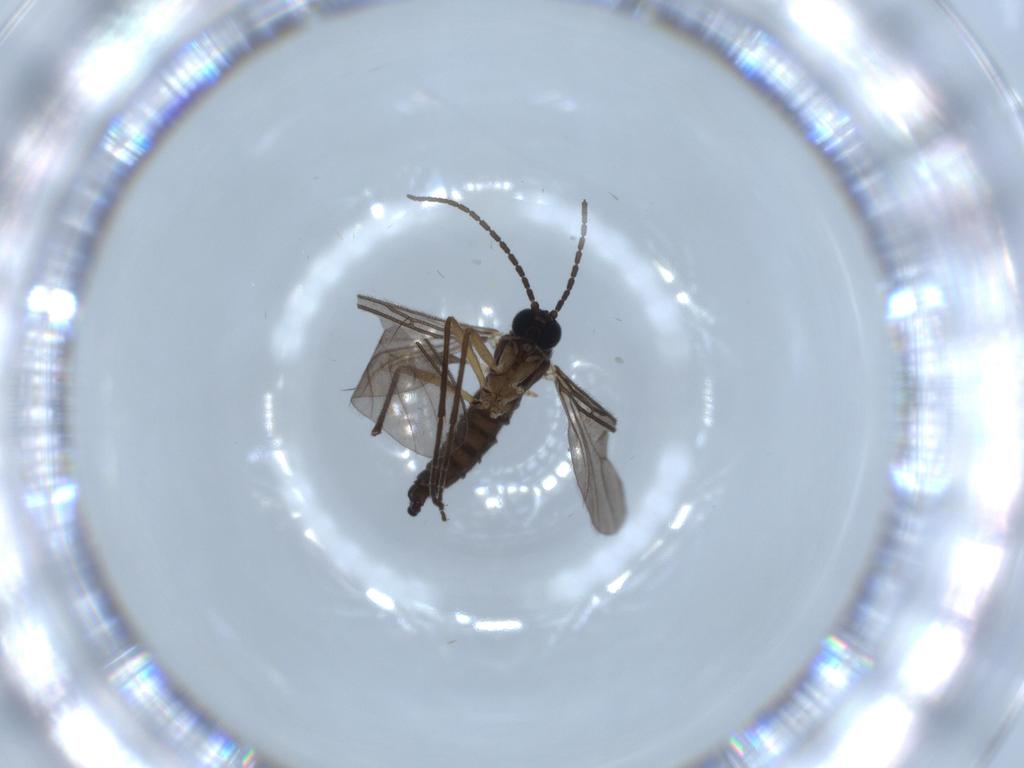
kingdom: Animalia
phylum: Arthropoda
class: Insecta
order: Diptera
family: Sciaridae
